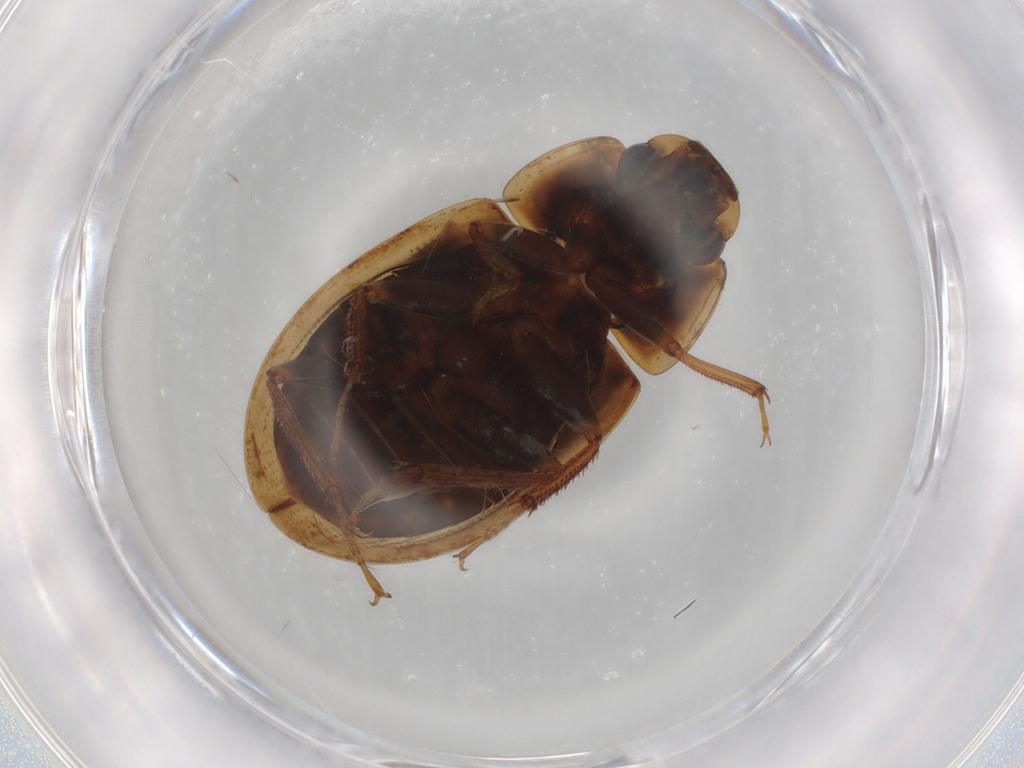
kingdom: Animalia
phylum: Arthropoda
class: Insecta
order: Coleoptera
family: Hydrophilidae
